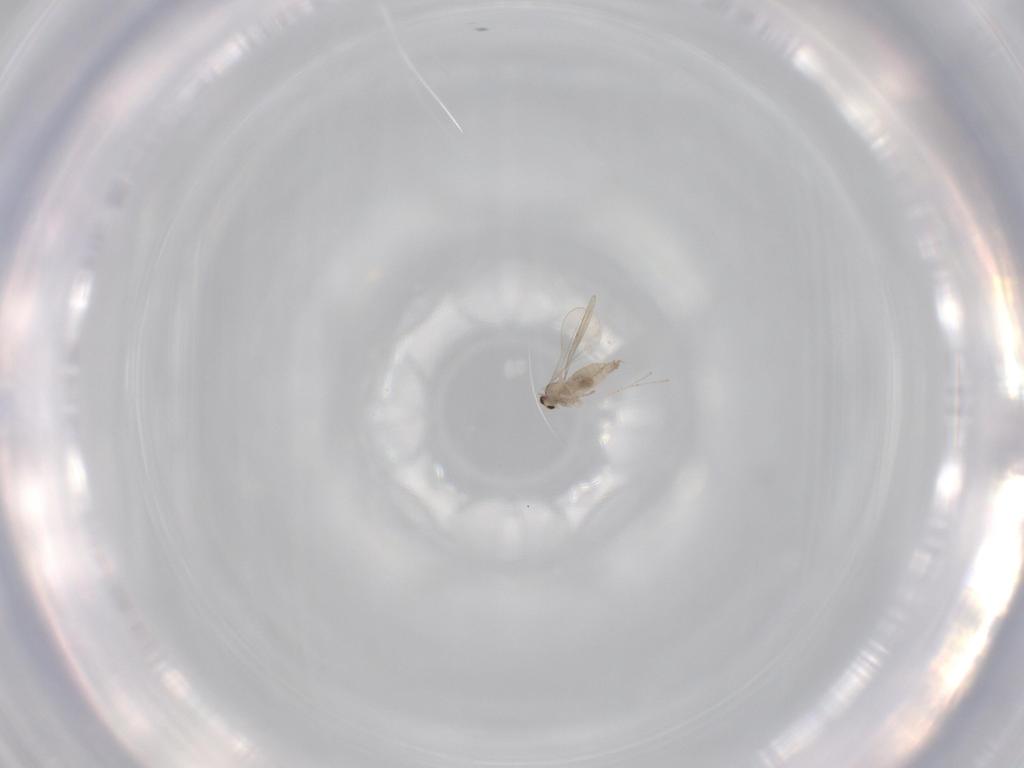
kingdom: Animalia
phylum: Arthropoda
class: Insecta
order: Diptera
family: Cecidomyiidae
